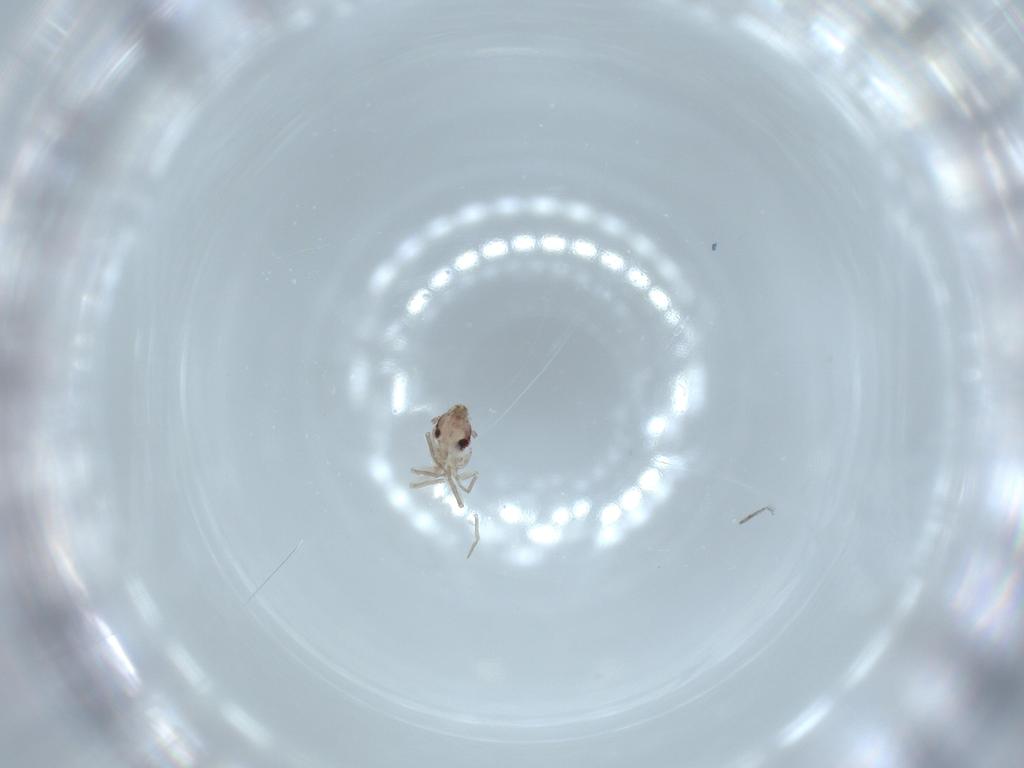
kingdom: Animalia
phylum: Arthropoda
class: Insecta
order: Psocodea
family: Lepidopsocidae
